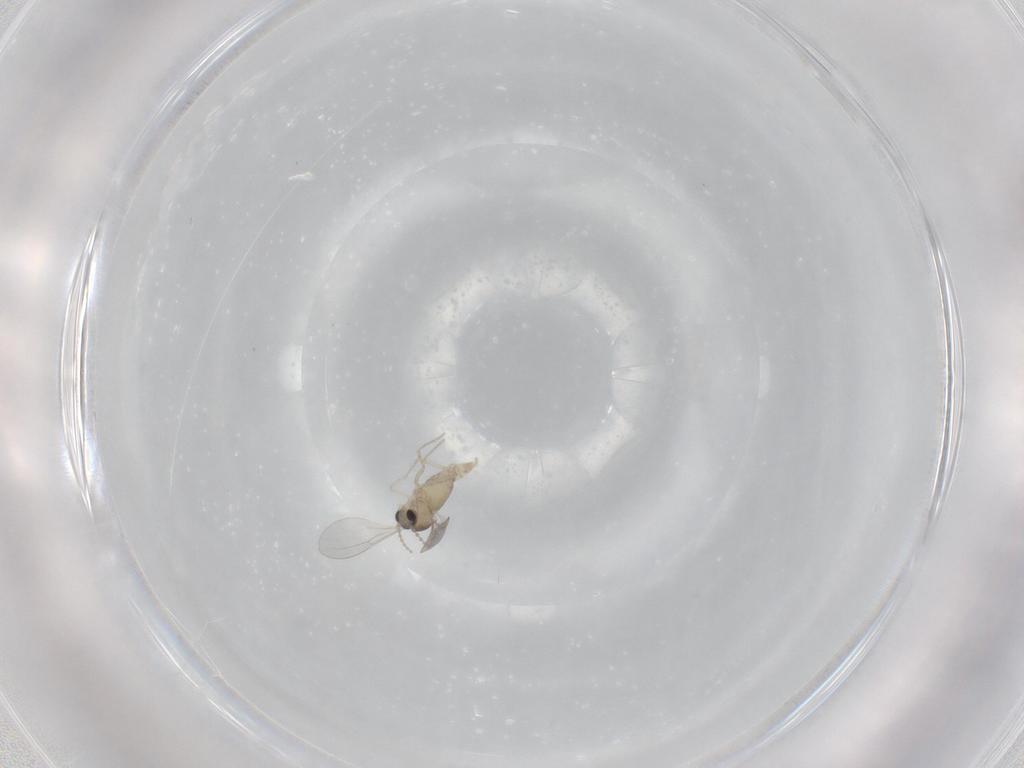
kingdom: Animalia
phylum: Arthropoda
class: Insecta
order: Diptera
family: Cecidomyiidae
